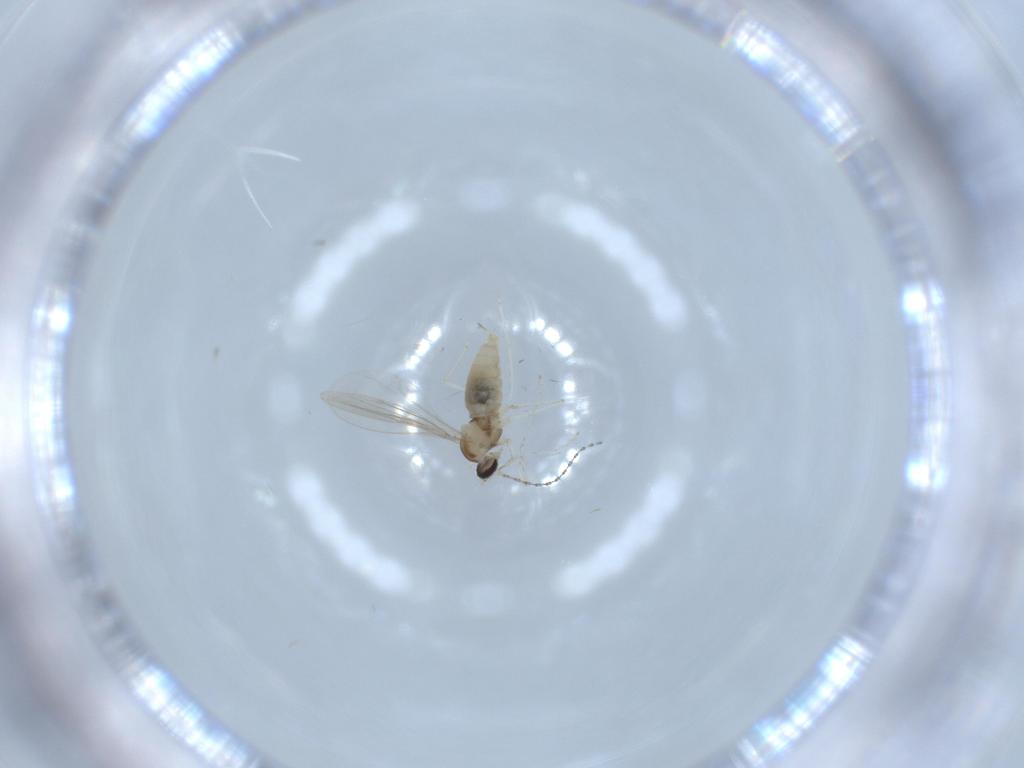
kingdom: Animalia
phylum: Arthropoda
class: Insecta
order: Diptera
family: Cecidomyiidae
